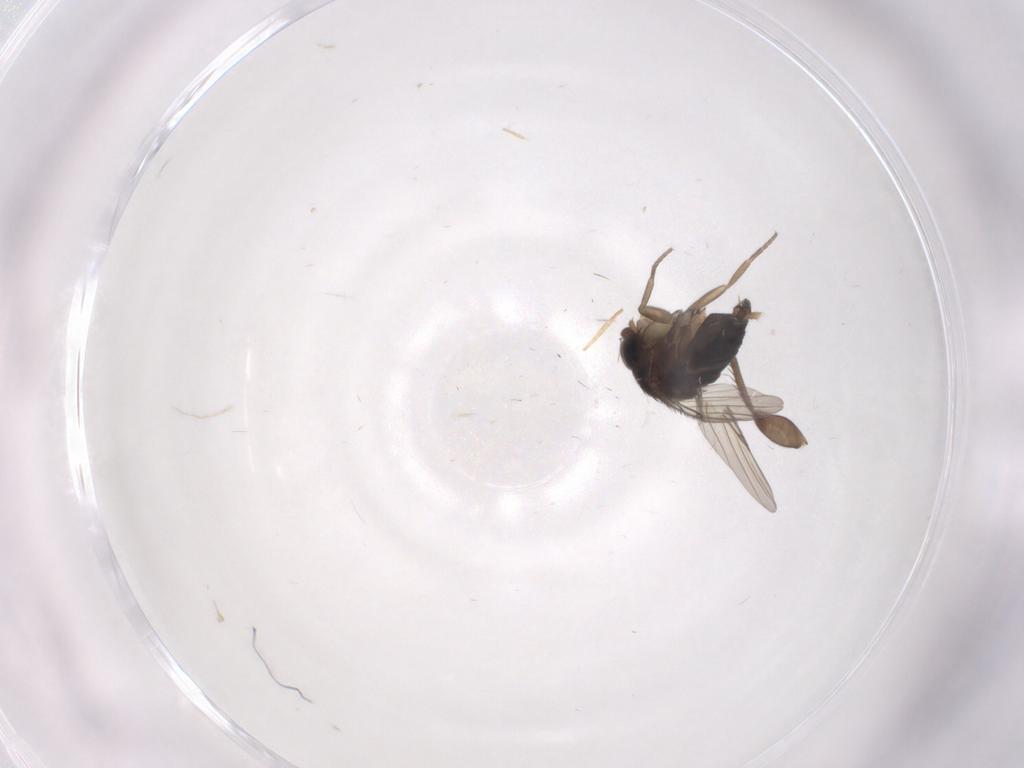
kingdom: Animalia
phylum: Arthropoda
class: Insecta
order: Diptera
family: Phoridae
